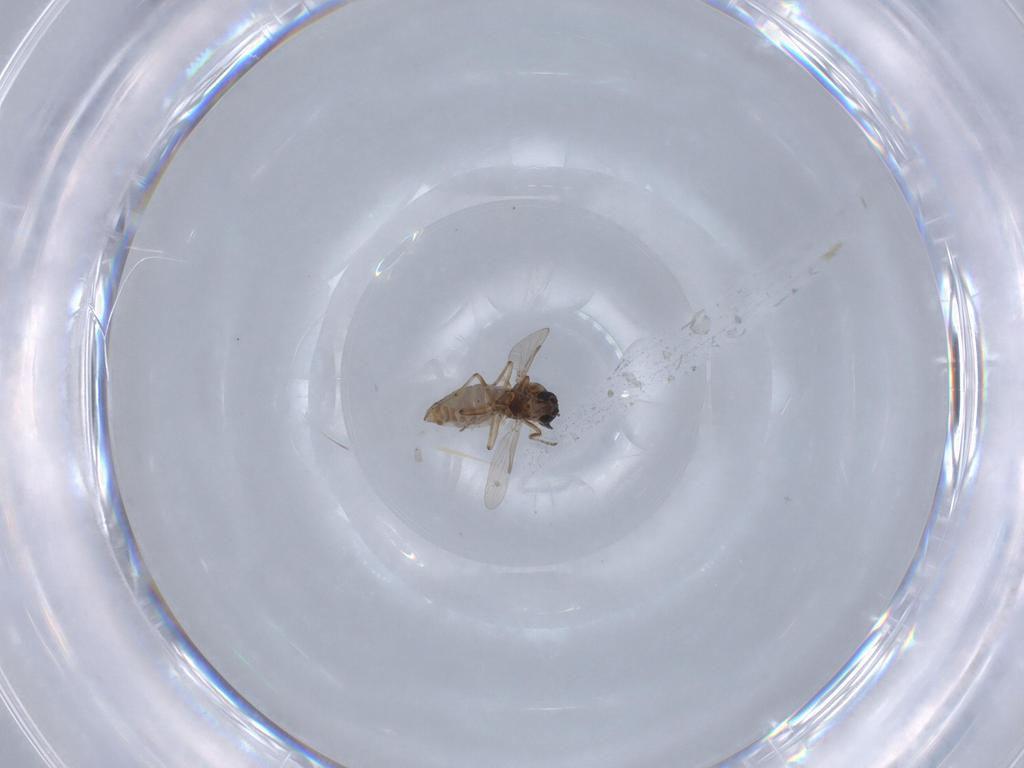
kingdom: Animalia
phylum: Arthropoda
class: Insecta
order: Diptera
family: Ceratopogonidae
